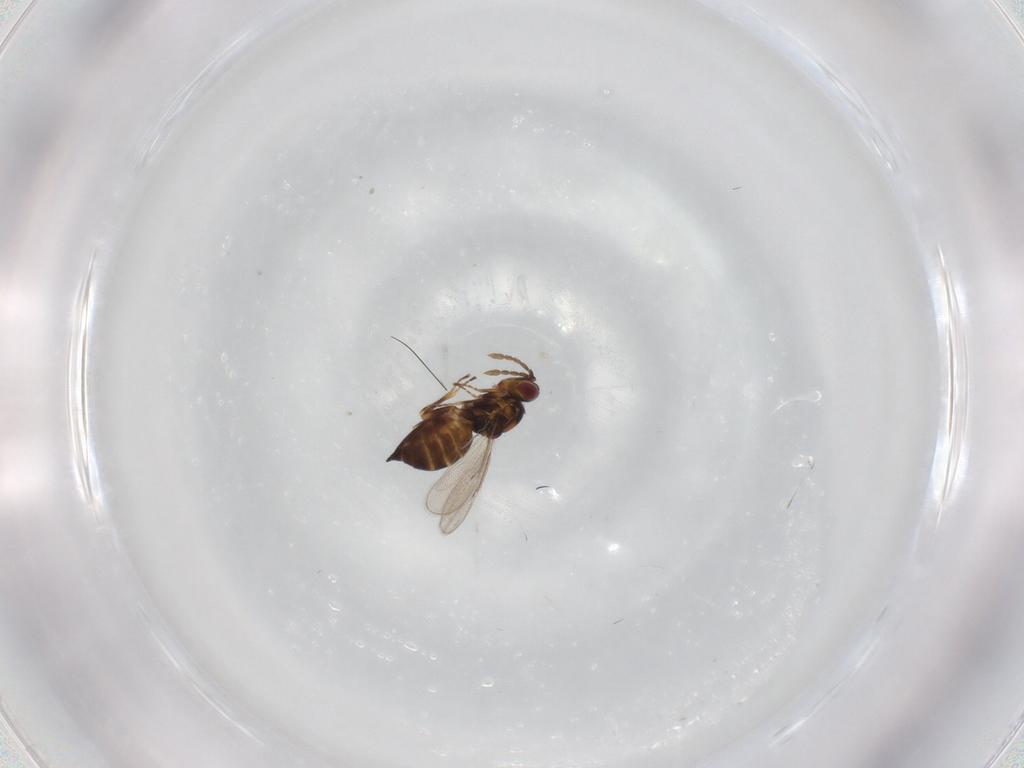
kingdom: Animalia
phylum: Arthropoda
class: Insecta
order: Hymenoptera
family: Eulophidae
